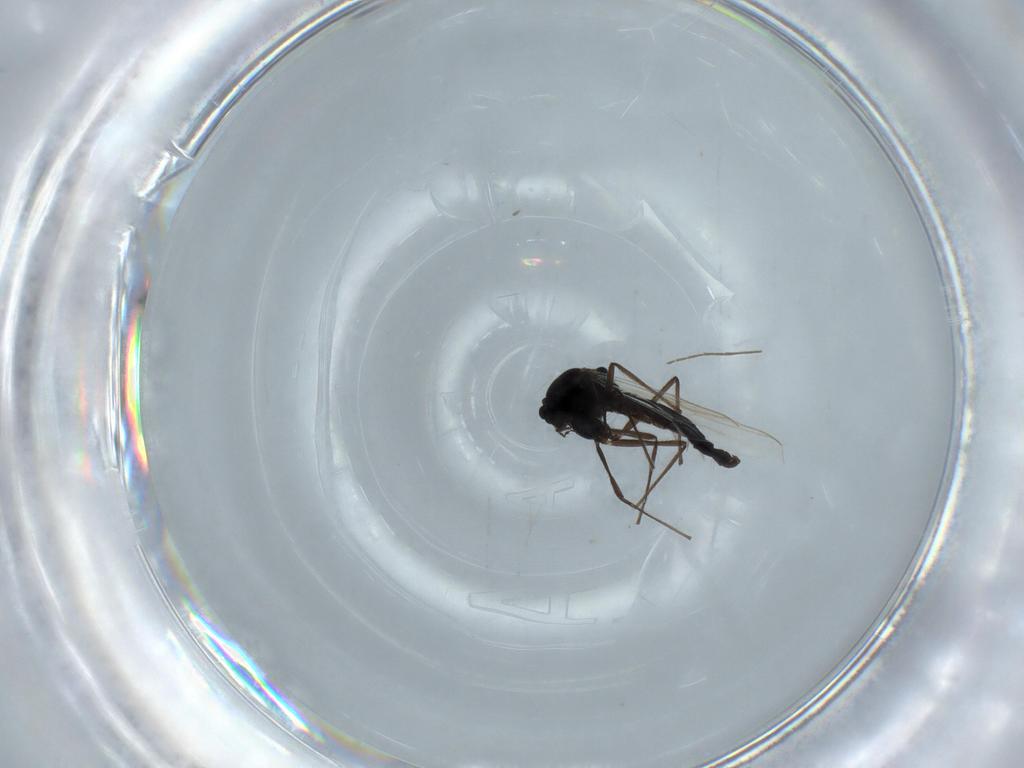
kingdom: Animalia
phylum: Arthropoda
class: Insecta
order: Diptera
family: Stratiomyidae
